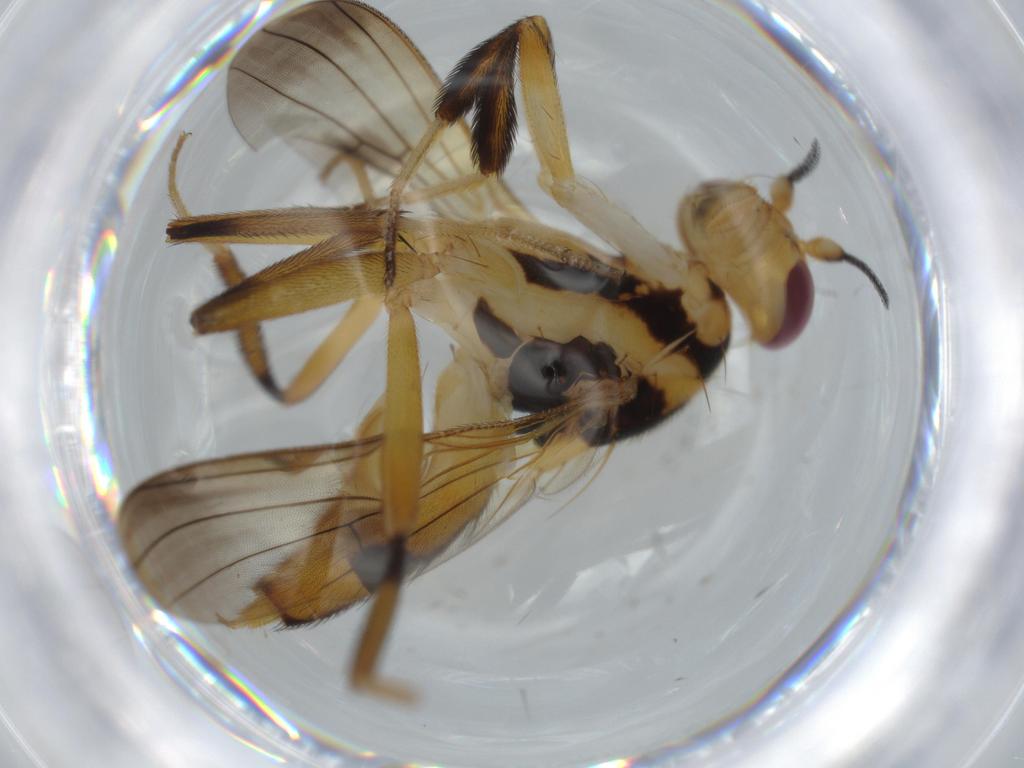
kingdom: Animalia
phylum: Arthropoda
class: Insecta
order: Diptera
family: Clusiidae
